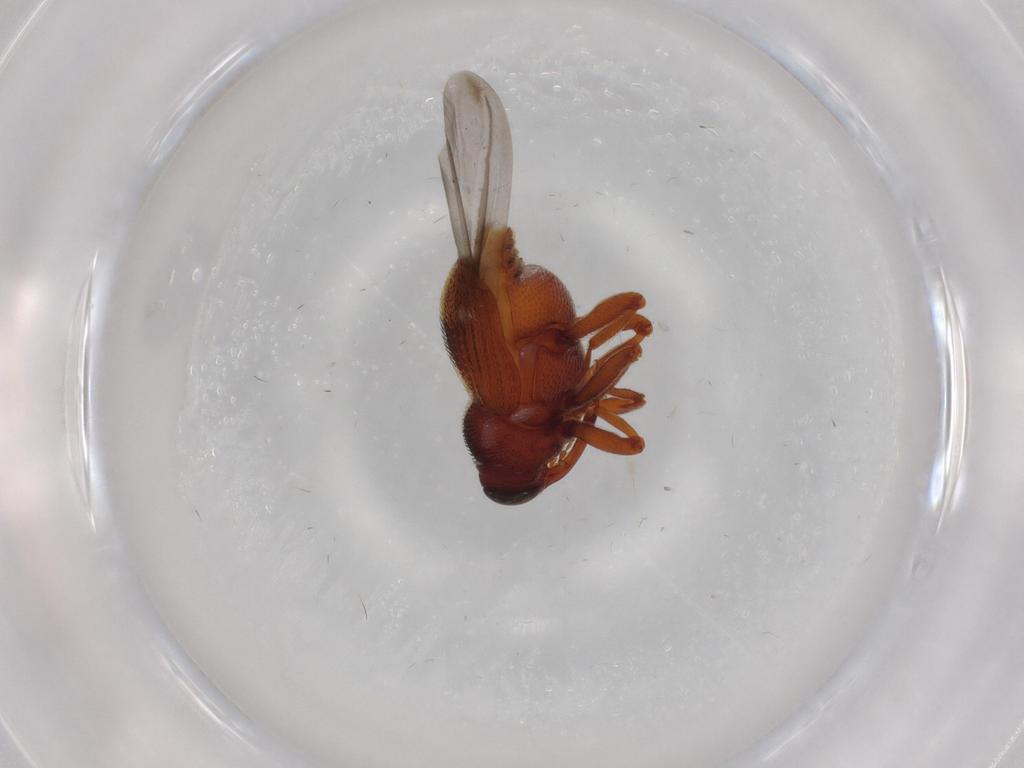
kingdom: Animalia
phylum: Arthropoda
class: Insecta
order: Coleoptera
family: Curculionidae
